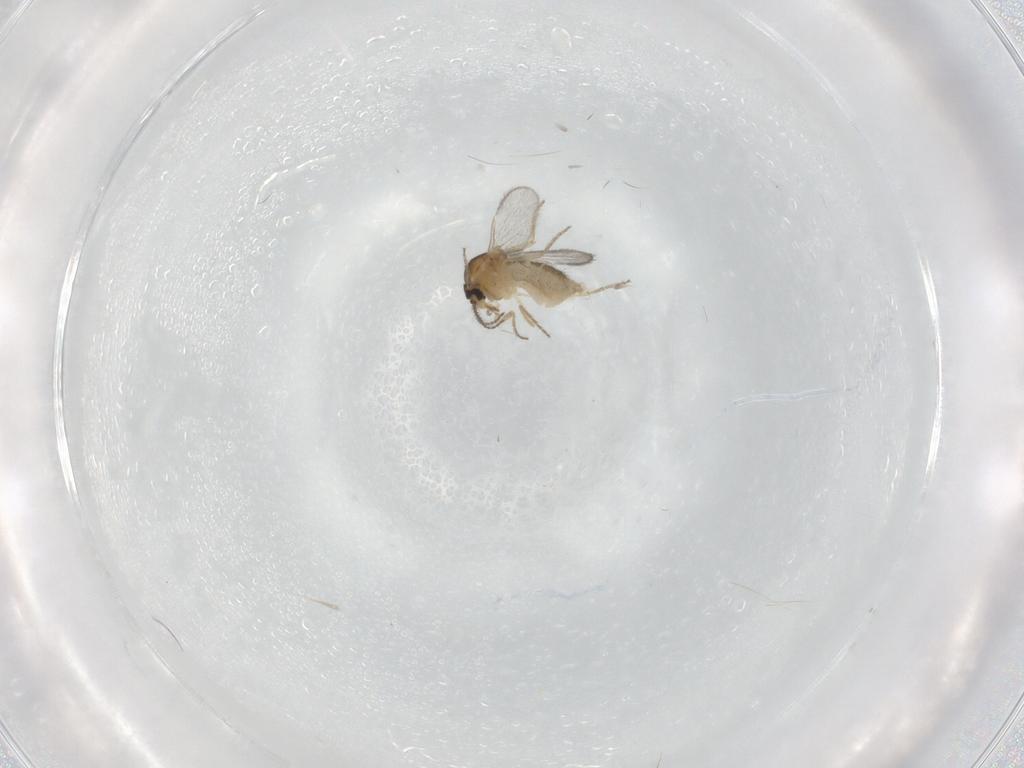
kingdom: Animalia
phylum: Arthropoda
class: Insecta
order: Diptera
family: Ceratopogonidae
